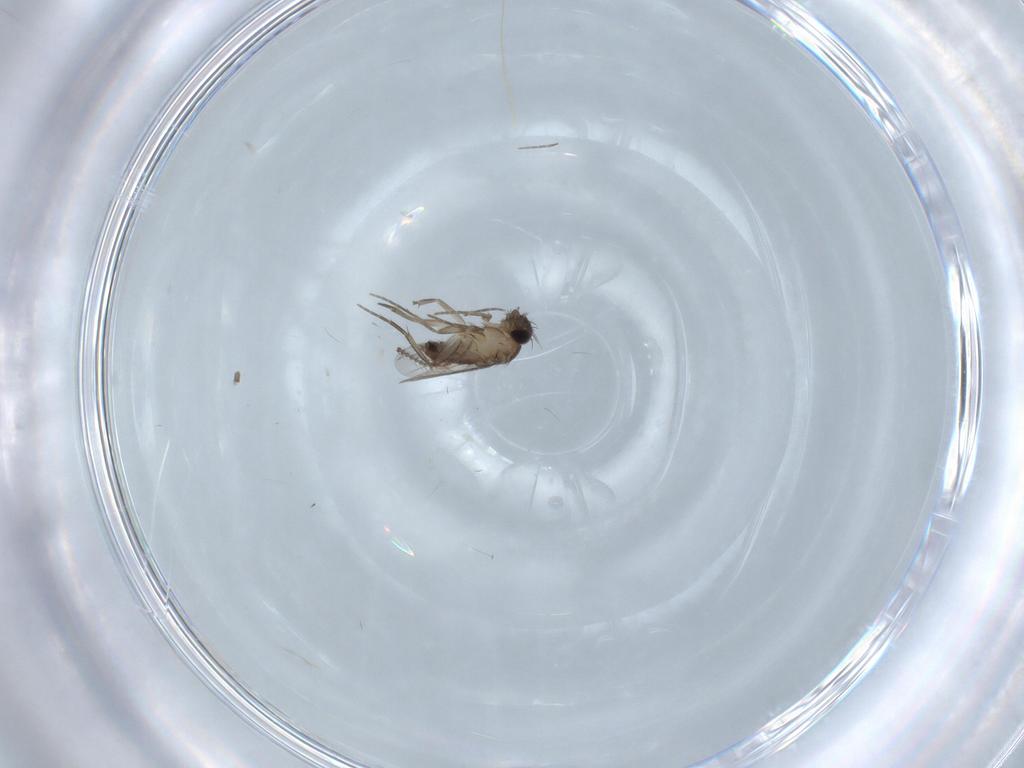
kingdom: Animalia
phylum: Arthropoda
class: Insecta
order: Diptera
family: Phoridae
